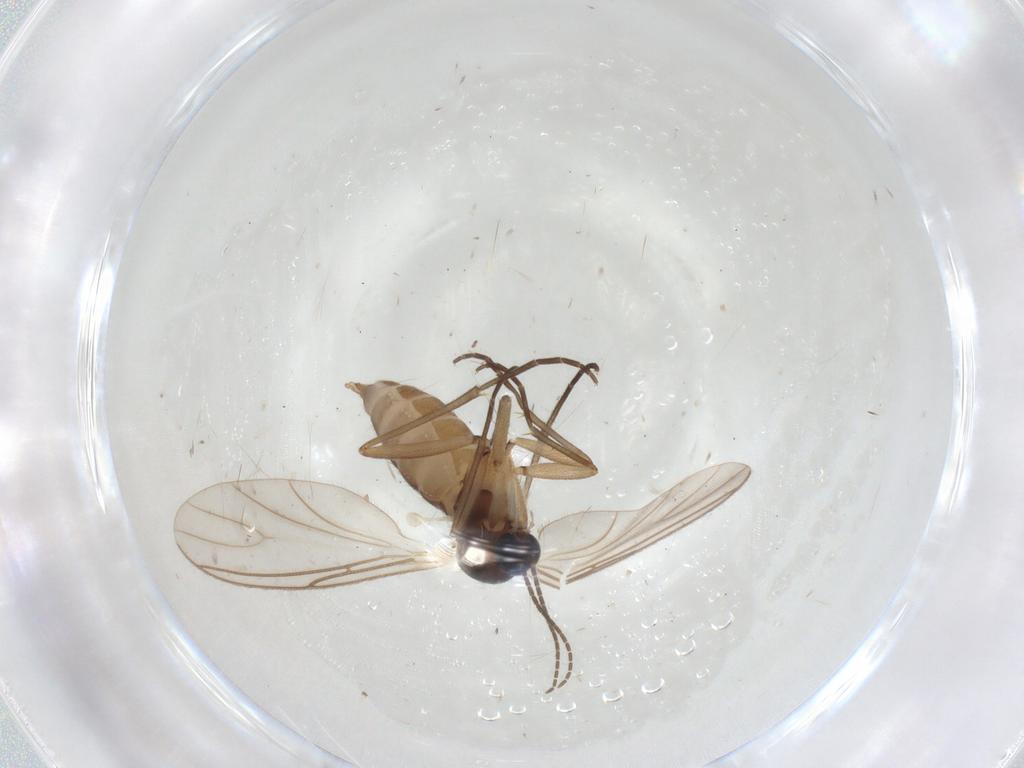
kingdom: Animalia
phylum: Arthropoda
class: Insecta
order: Diptera
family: Sciaridae
